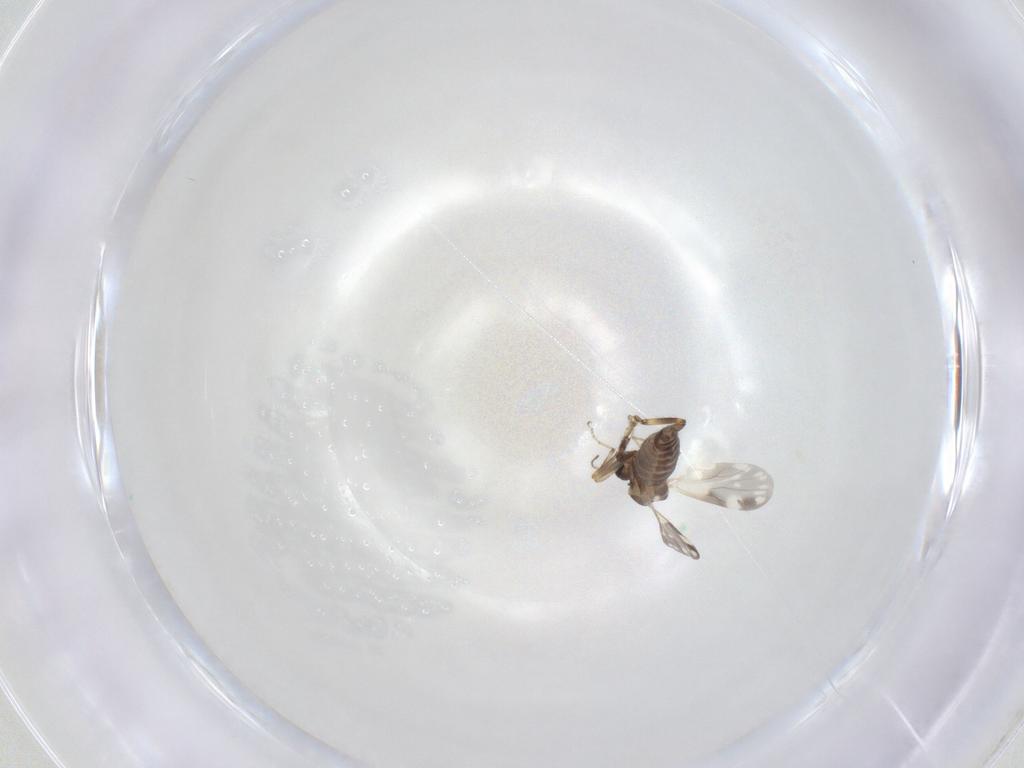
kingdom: Animalia
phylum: Arthropoda
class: Insecta
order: Diptera
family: Ceratopogonidae
